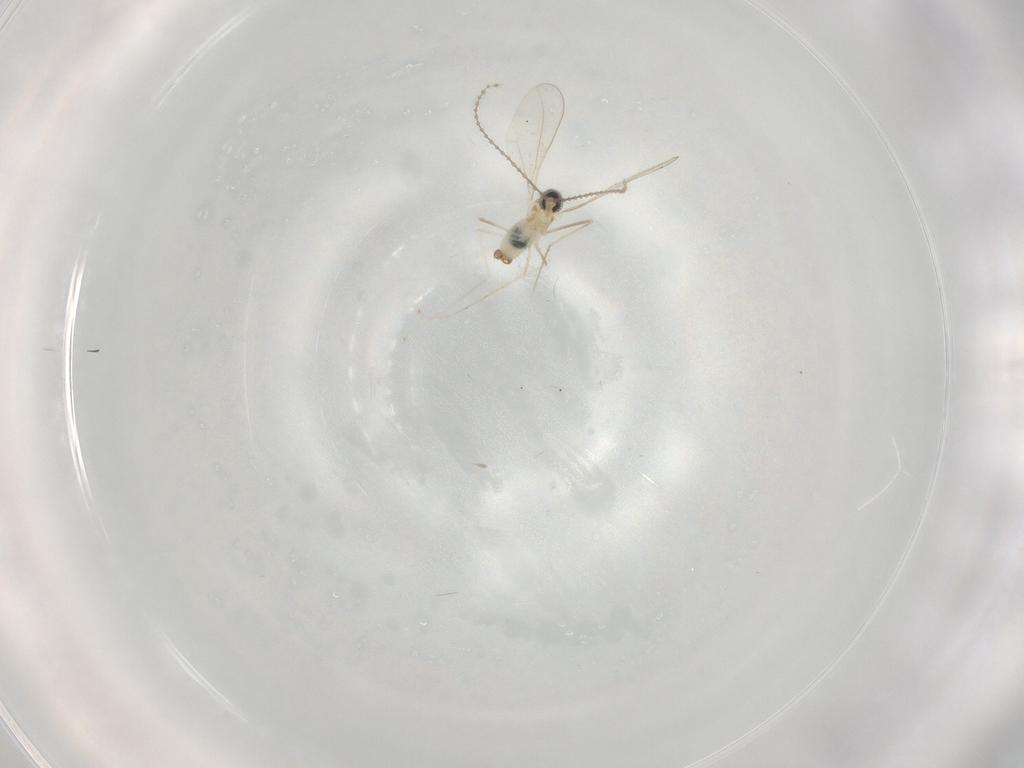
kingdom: Animalia
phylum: Arthropoda
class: Insecta
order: Diptera
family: Cecidomyiidae
